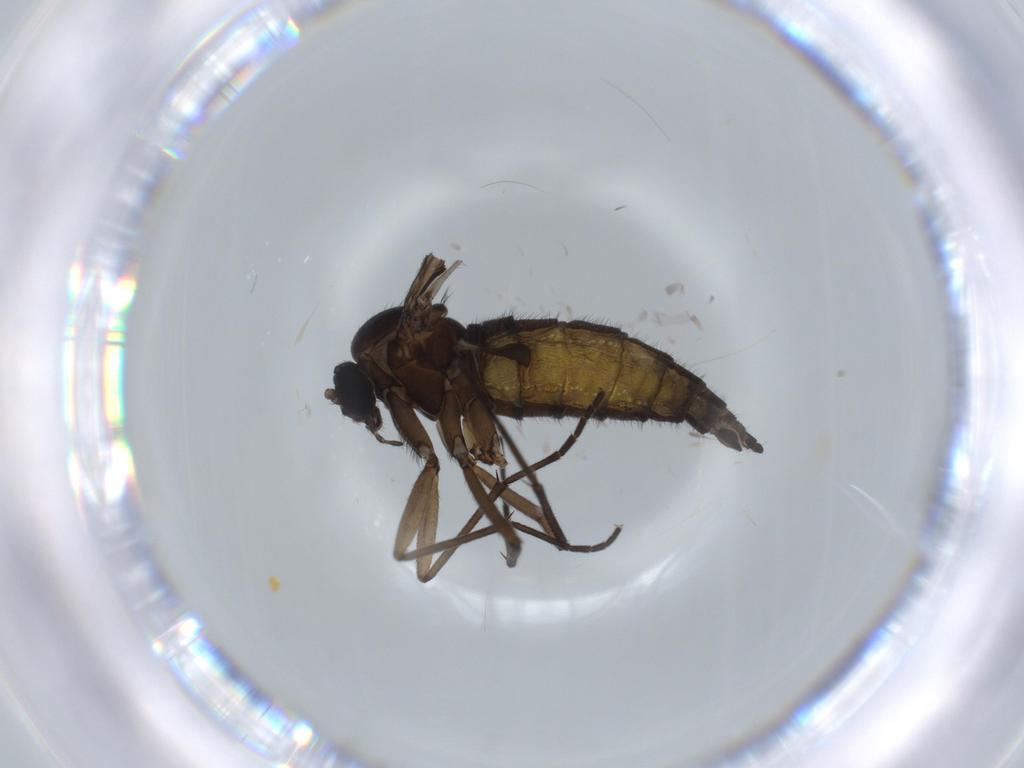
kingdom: Animalia
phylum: Arthropoda
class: Insecta
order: Diptera
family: Sciaridae
